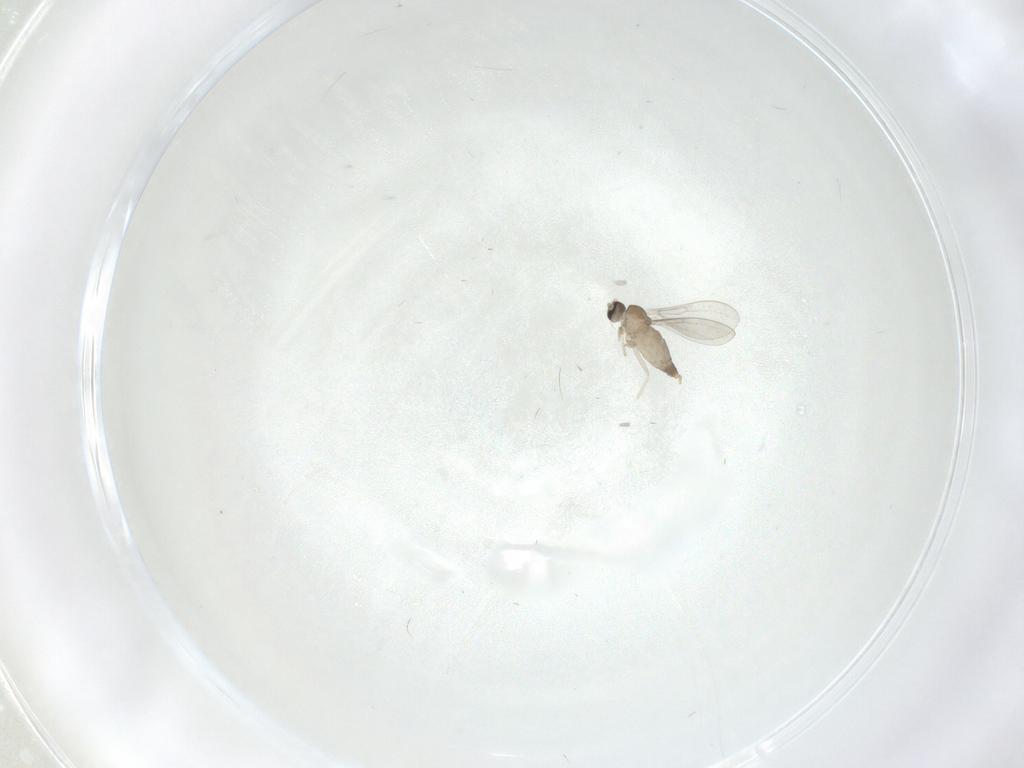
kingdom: Animalia
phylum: Arthropoda
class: Insecta
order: Diptera
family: Cecidomyiidae
